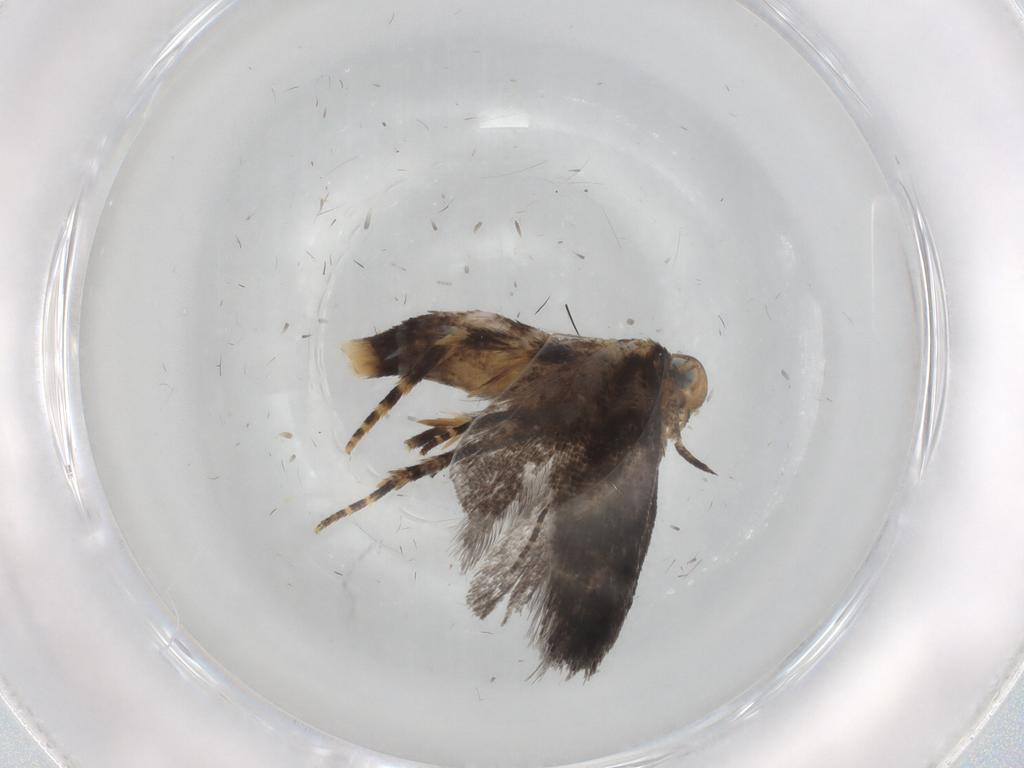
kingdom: Animalia
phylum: Arthropoda
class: Insecta
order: Lepidoptera
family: Gelechiidae
